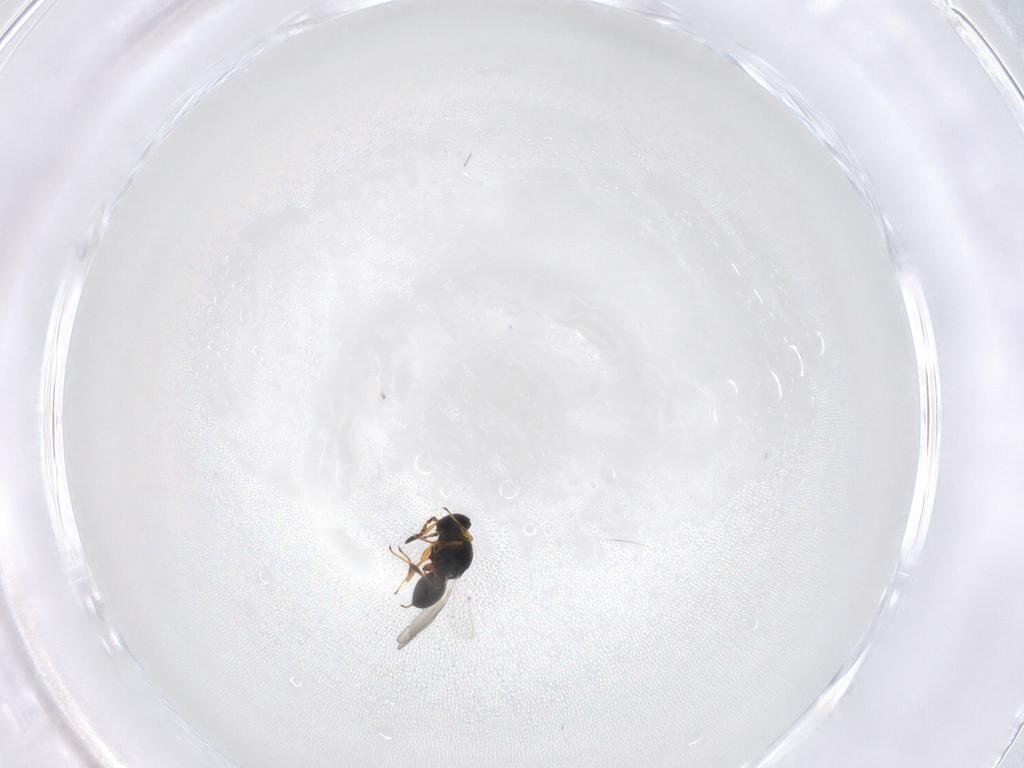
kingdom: Animalia
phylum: Arthropoda
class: Insecta
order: Hymenoptera
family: Platygastridae
